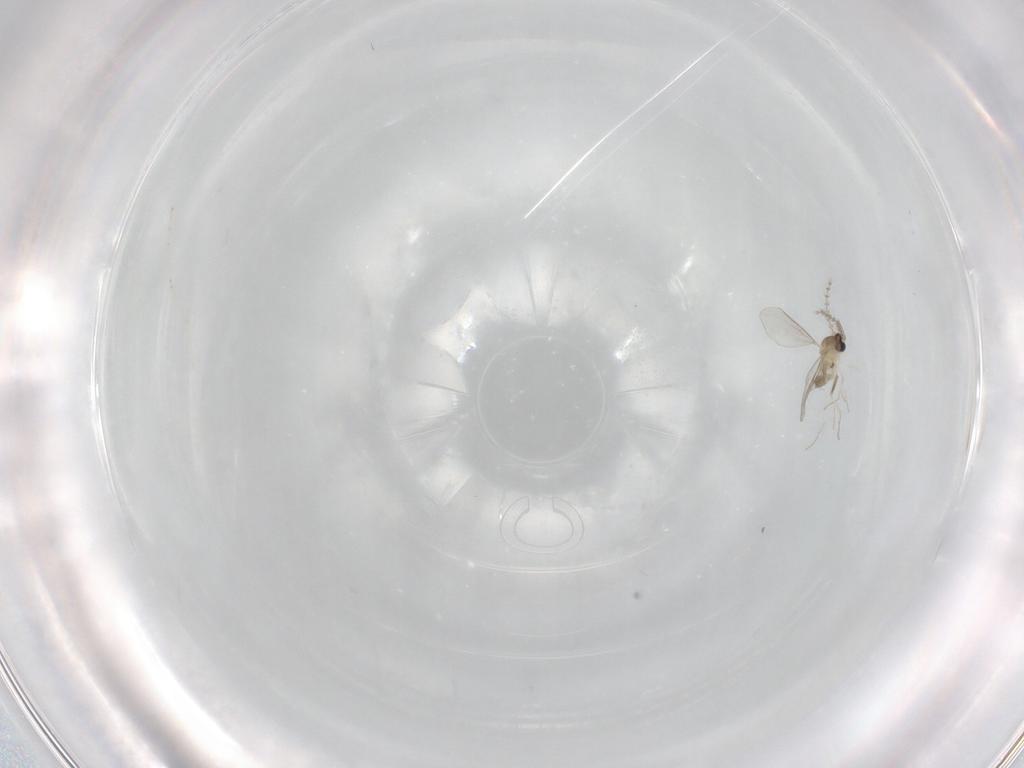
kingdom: Animalia
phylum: Arthropoda
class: Insecta
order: Diptera
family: Cecidomyiidae
